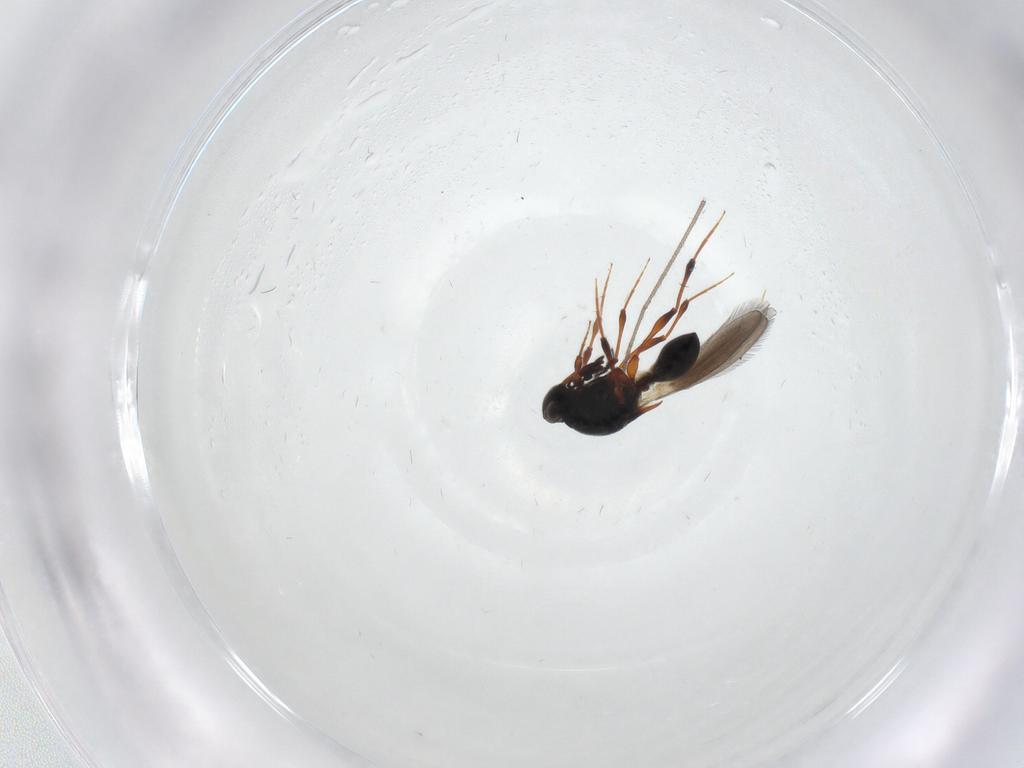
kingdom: Animalia
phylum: Arthropoda
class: Insecta
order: Hymenoptera
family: Platygastridae
